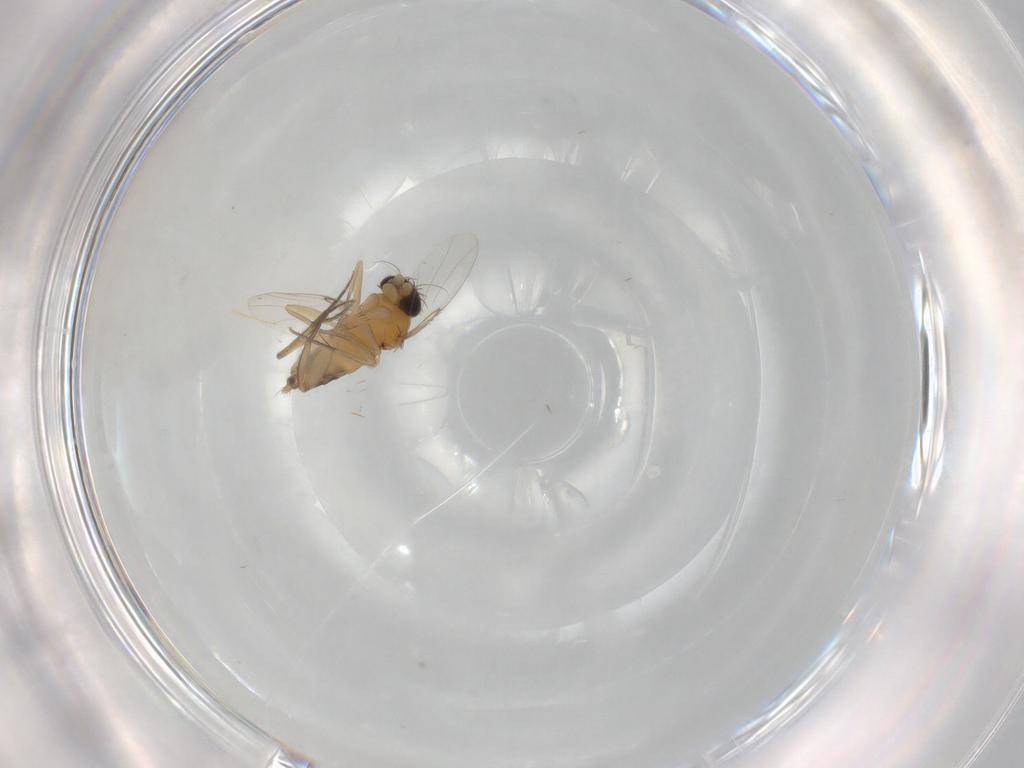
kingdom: Animalia
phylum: Arthropoda
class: Insecta
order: Diptera
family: Phoridae
